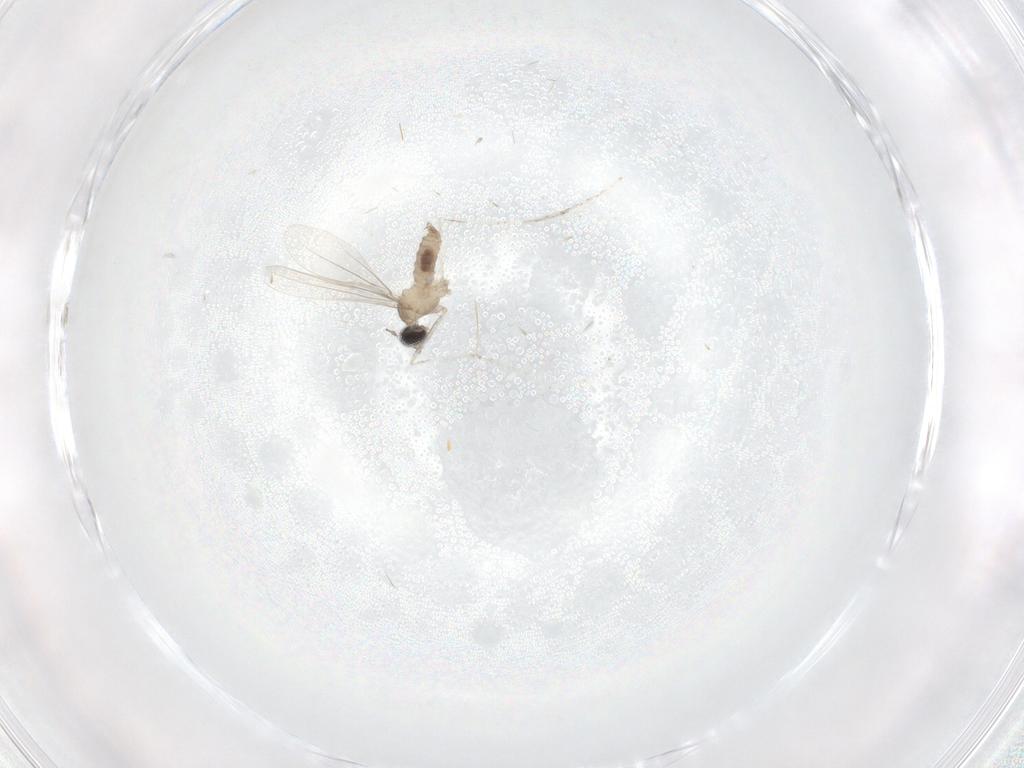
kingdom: Animalia
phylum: Arthropoda
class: Insecta
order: Diptera
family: Cecidomyiidae
